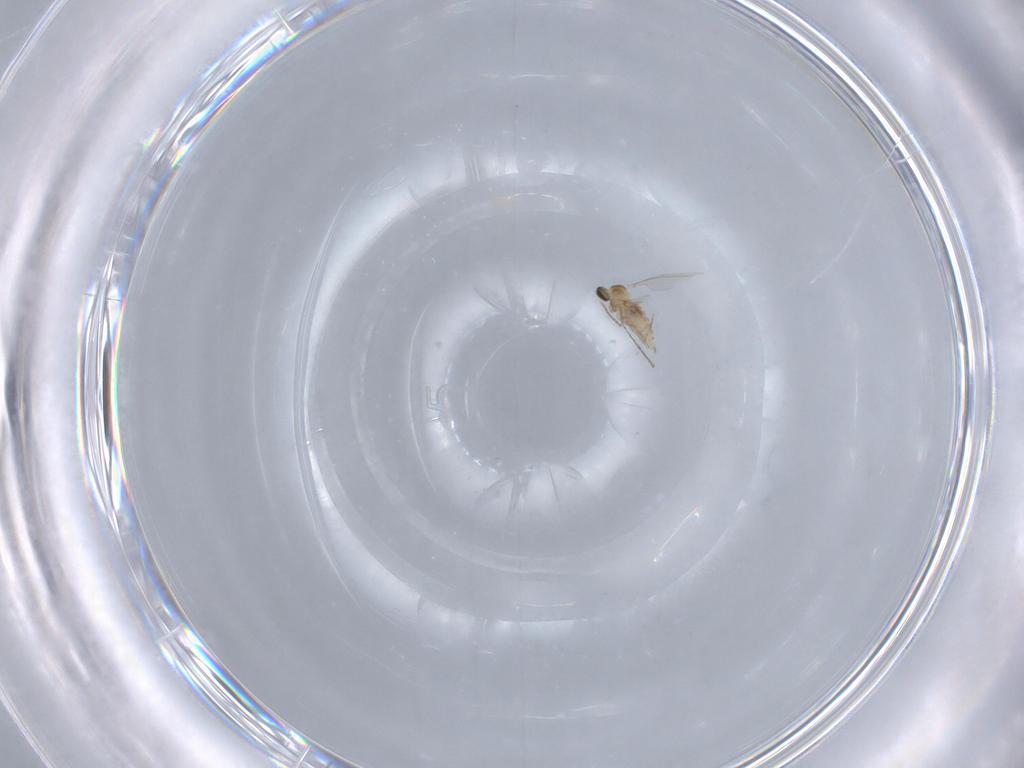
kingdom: Animalia
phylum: Arthropoda
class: Insecta
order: Diptera
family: Cecidomyiidae
